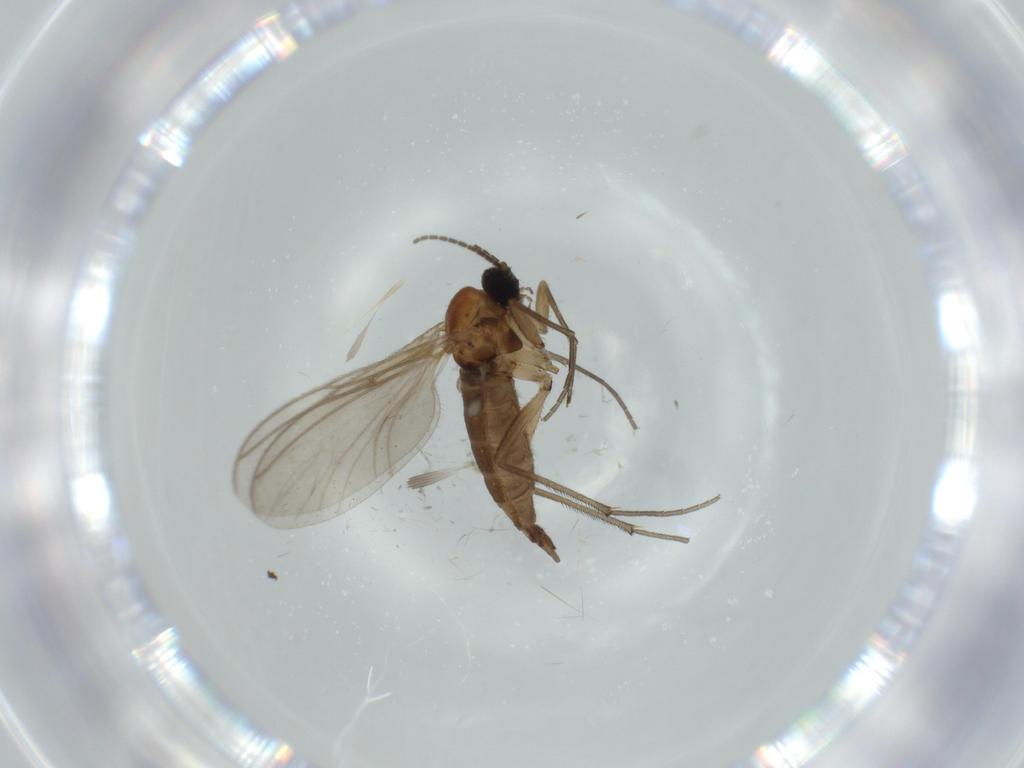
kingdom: Animalia
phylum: Arthropoda
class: Insecta
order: Diptera
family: Sciaridae
